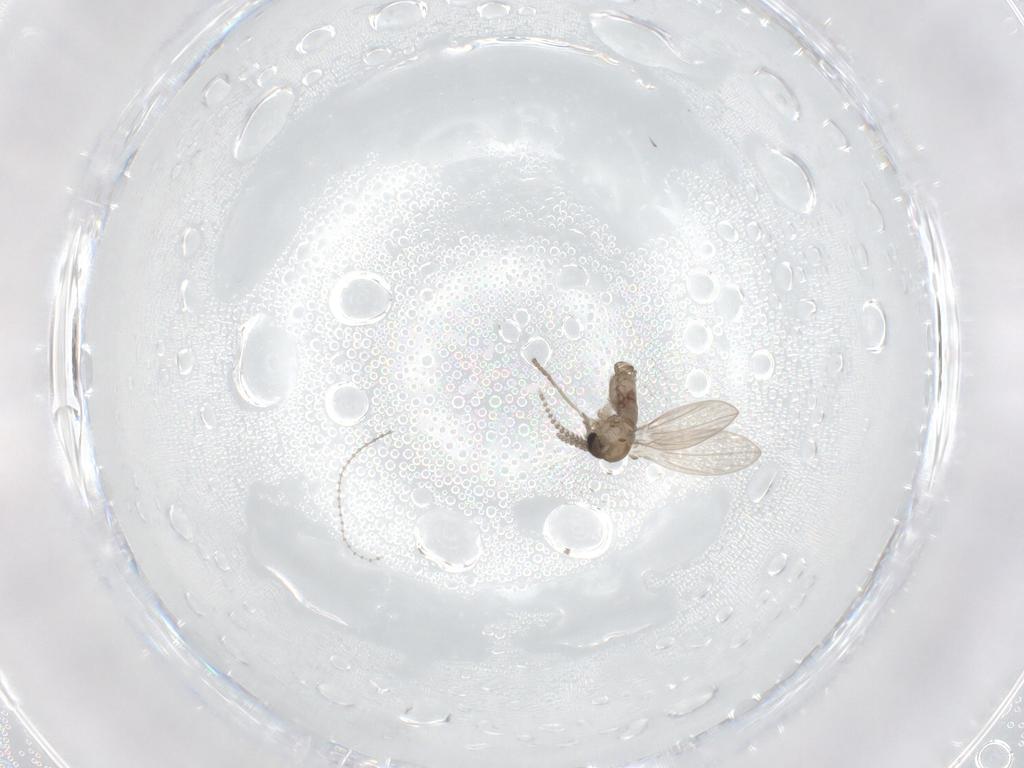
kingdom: Animalia
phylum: Arthropoda
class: Insecta
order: Diptera
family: Psychodidae
